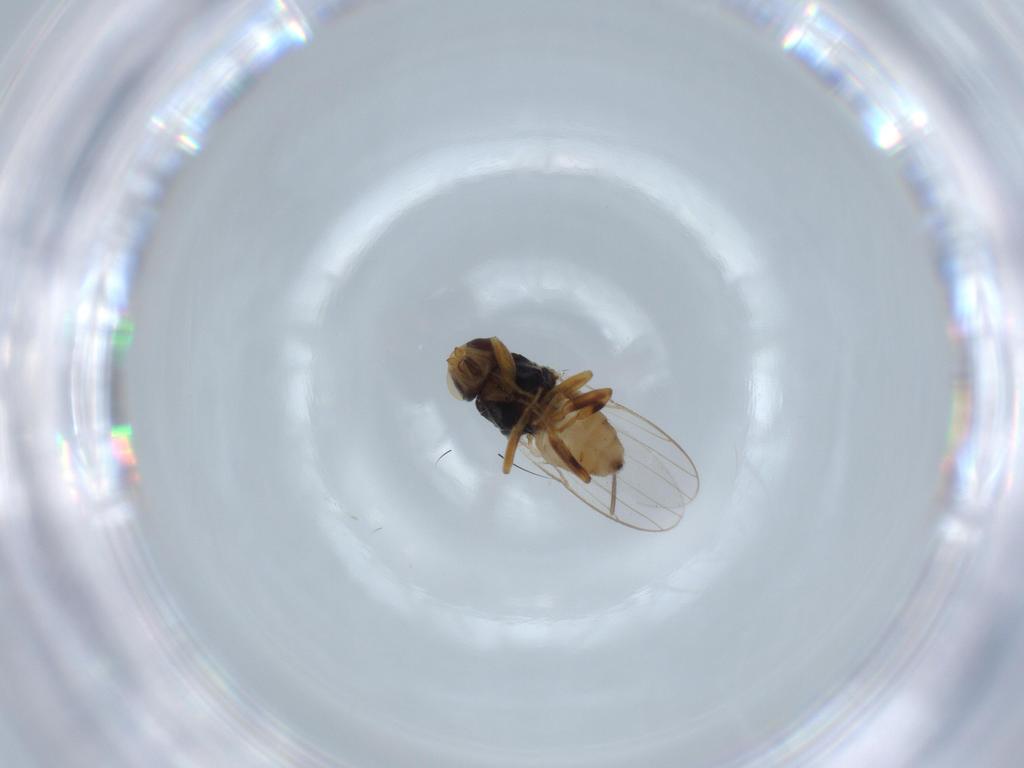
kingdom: Animalia
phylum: Arthropoda
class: Insecta
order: Diptera
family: Chloropidae
